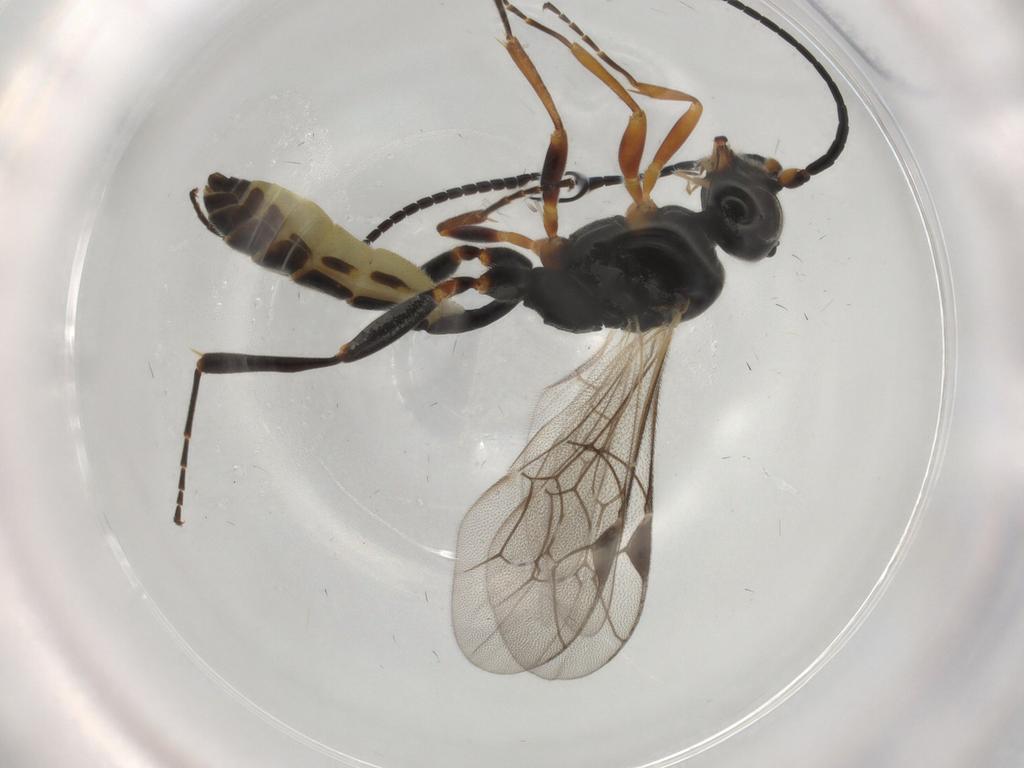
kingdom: Animalia
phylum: Arthropoda
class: Insecta
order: Hymenoptera
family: Ichneumonidae
